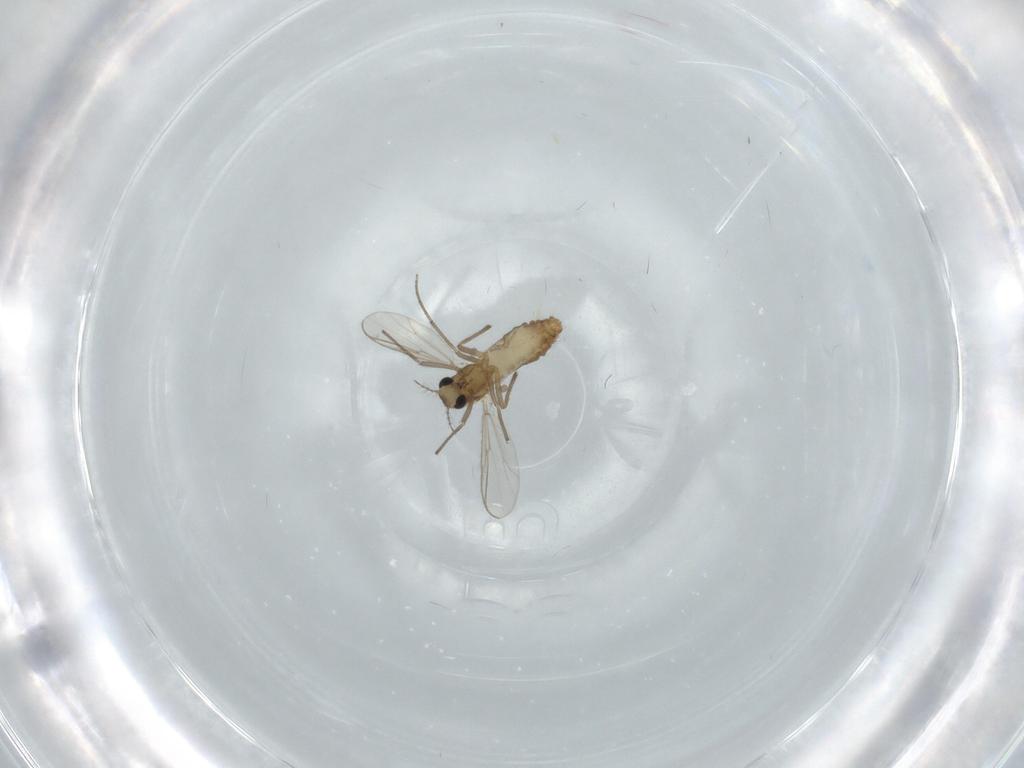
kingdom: Animalia
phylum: Arthropoda
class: Insecta
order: Diptera
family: Chironomidae
